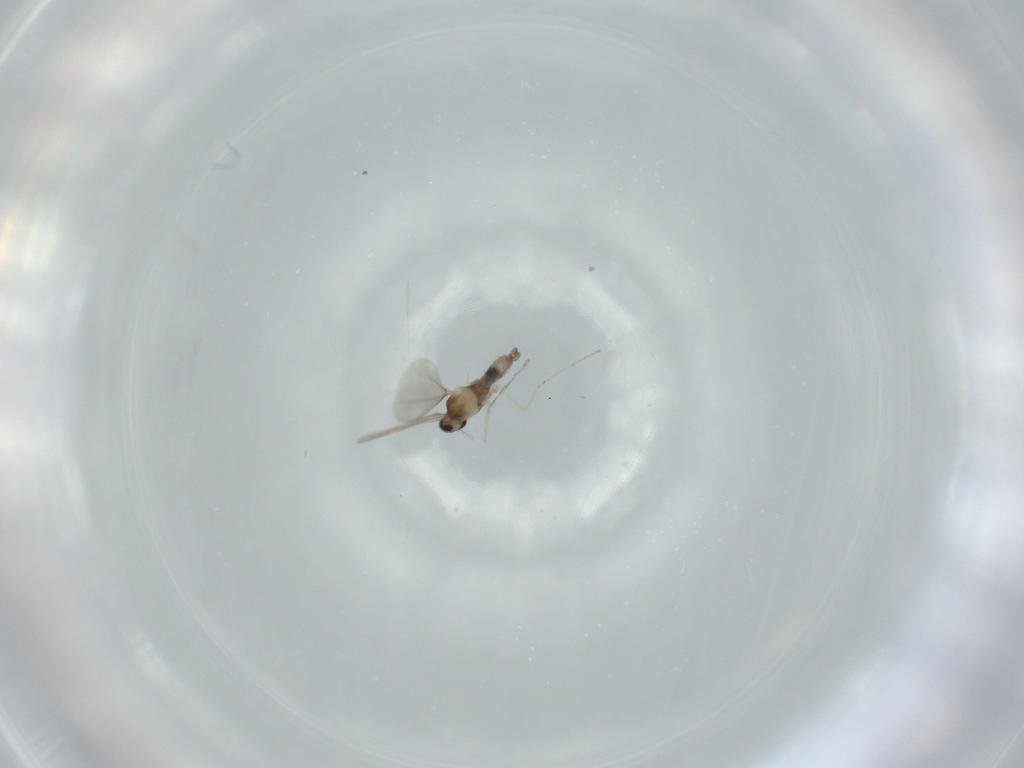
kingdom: Animalia
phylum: Arthropoda
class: Insecta
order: Diptera
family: Cecidomyiidae
